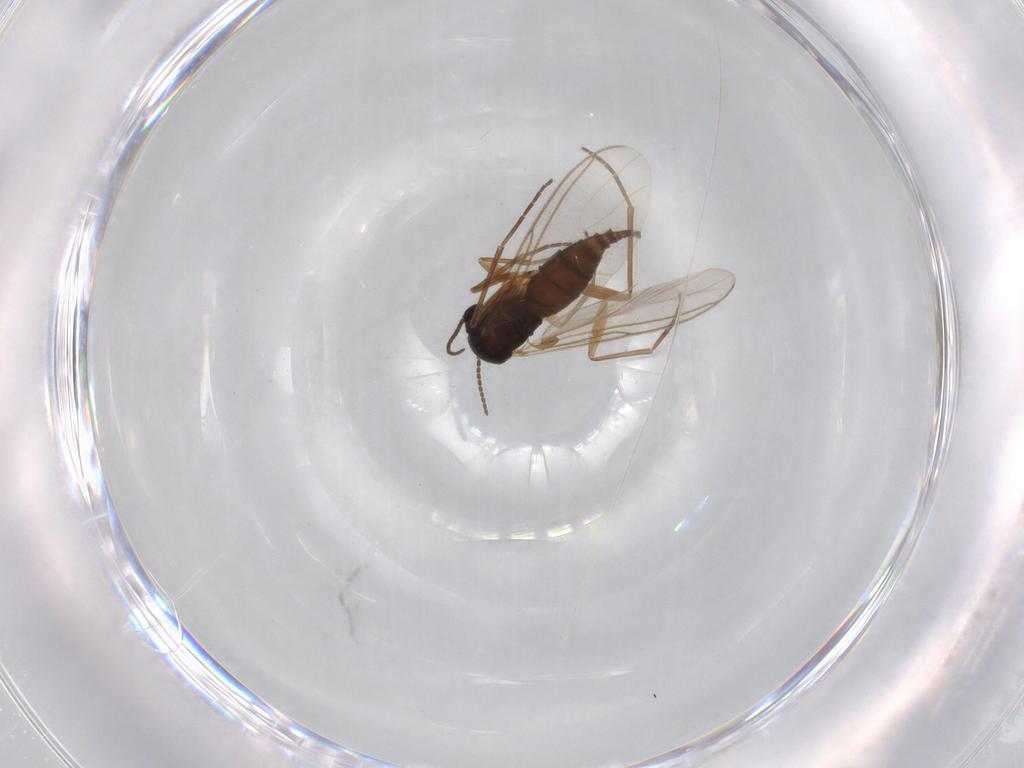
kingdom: Animalia
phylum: Arthropoda
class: Insecta
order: Diptera
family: Sciaridae
